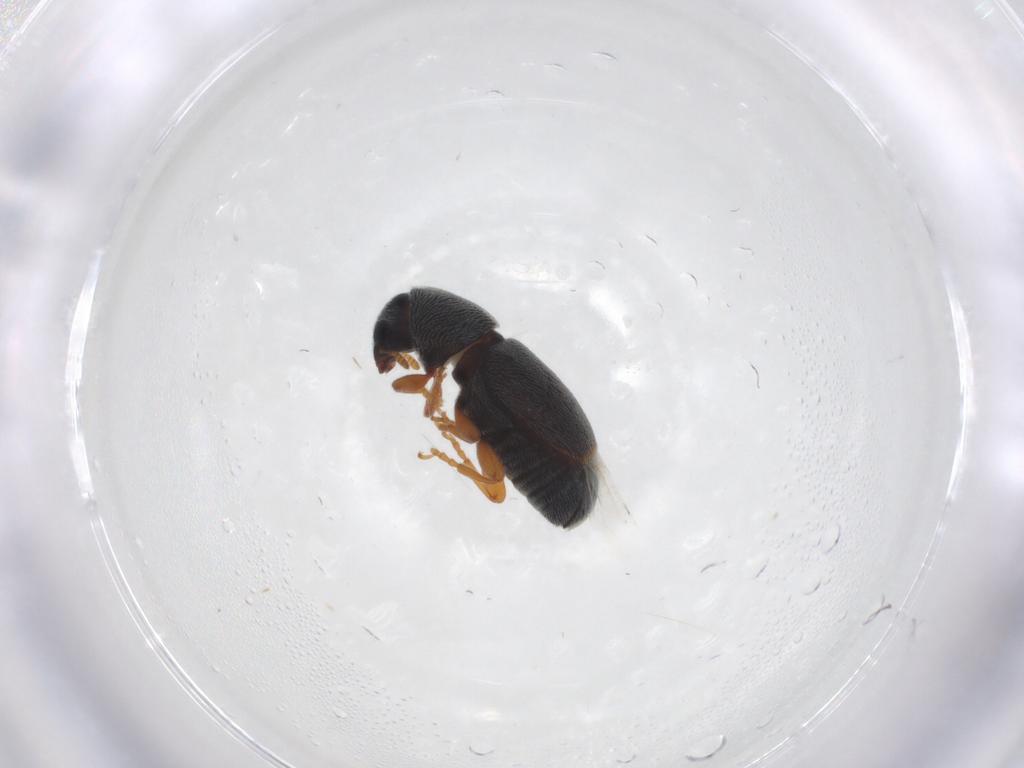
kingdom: Animalia
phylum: Arthropoda
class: Insecta
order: Coleoptera
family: Anthribidae
